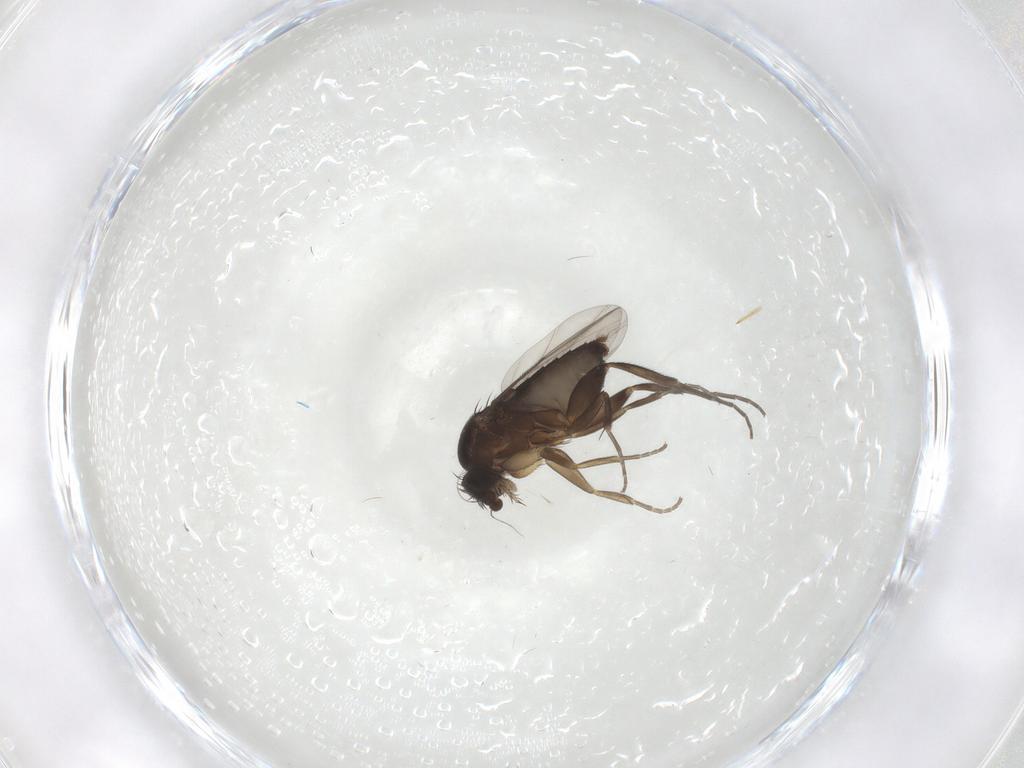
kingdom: Animalia
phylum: Arthropoda
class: Insecta
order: Diptera
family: Phoridae
